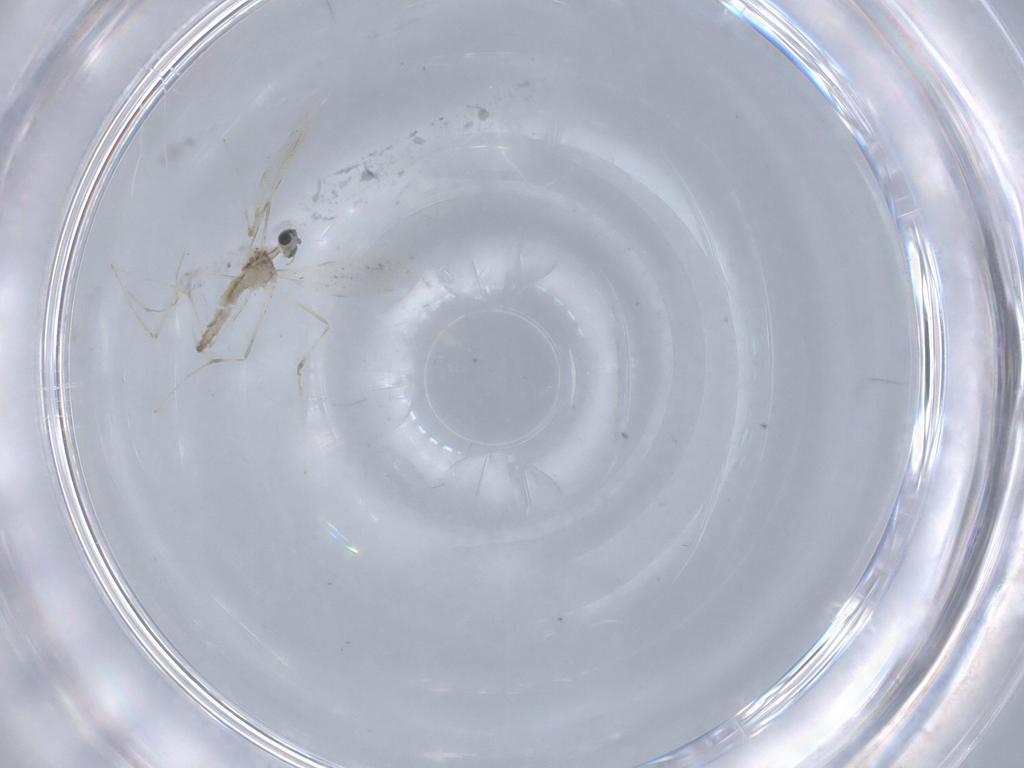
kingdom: Animalia
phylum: Arthropoda
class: Insecta
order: Diptera
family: Cecidomyiidae
